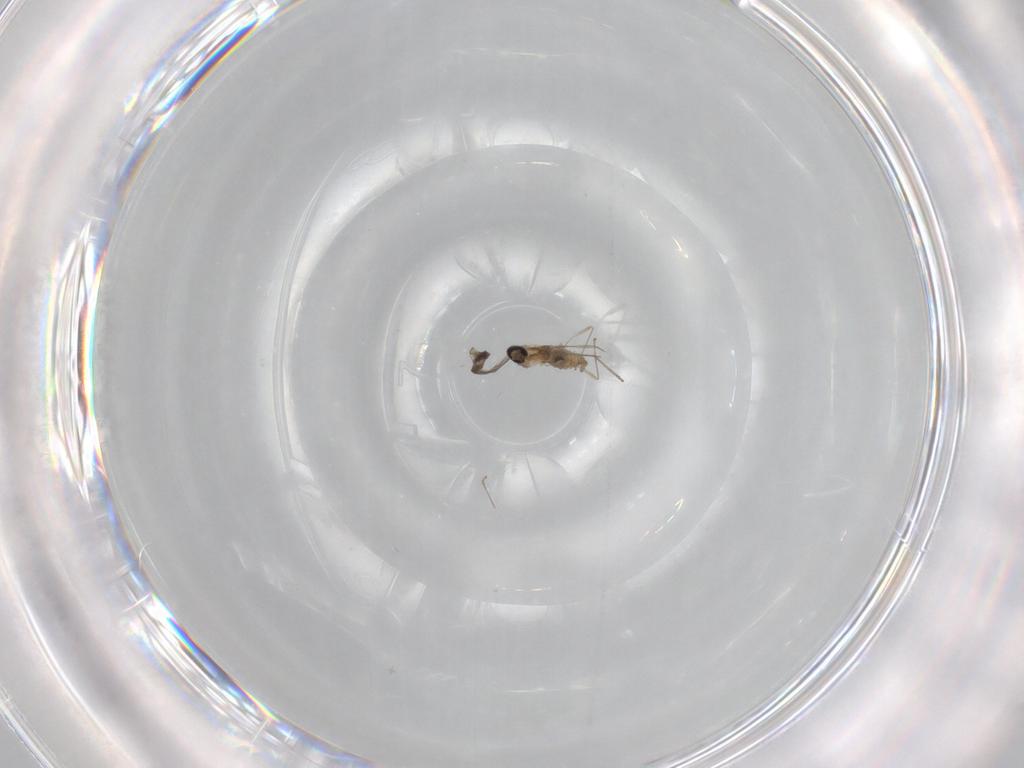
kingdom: Animalia
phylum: Arthropoda
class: Insecta
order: Diptera
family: Cecidomyiidae
